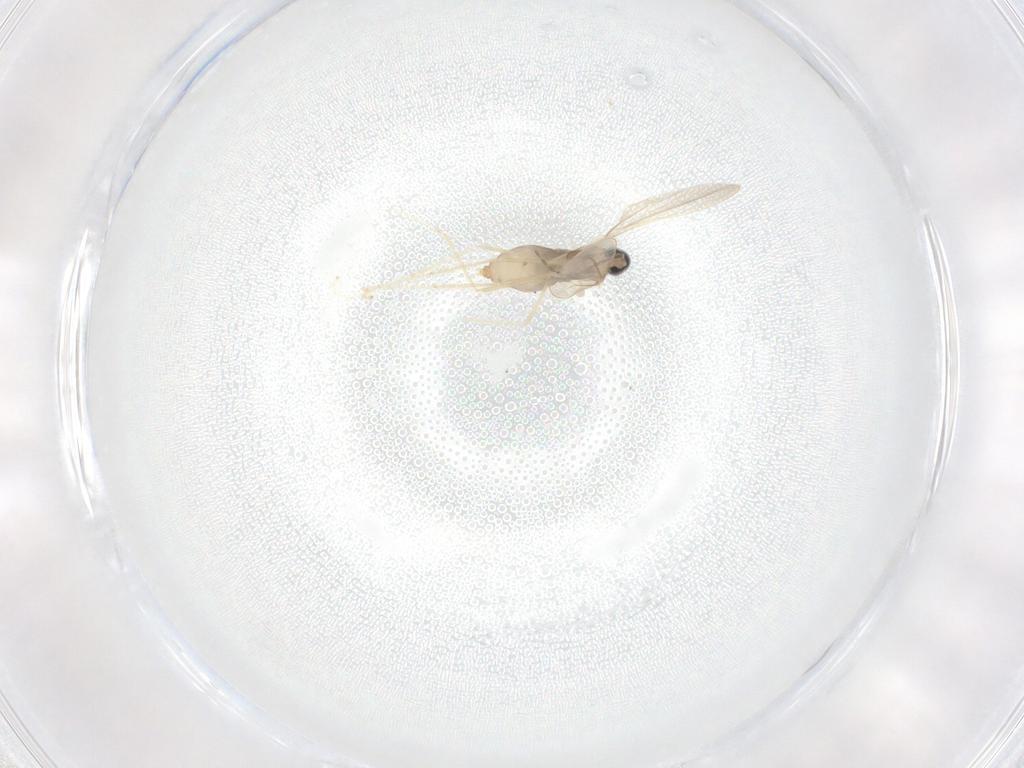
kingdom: Animalia
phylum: Arthropoda
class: Insecta
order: Diptera
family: Cecidomyiidae
